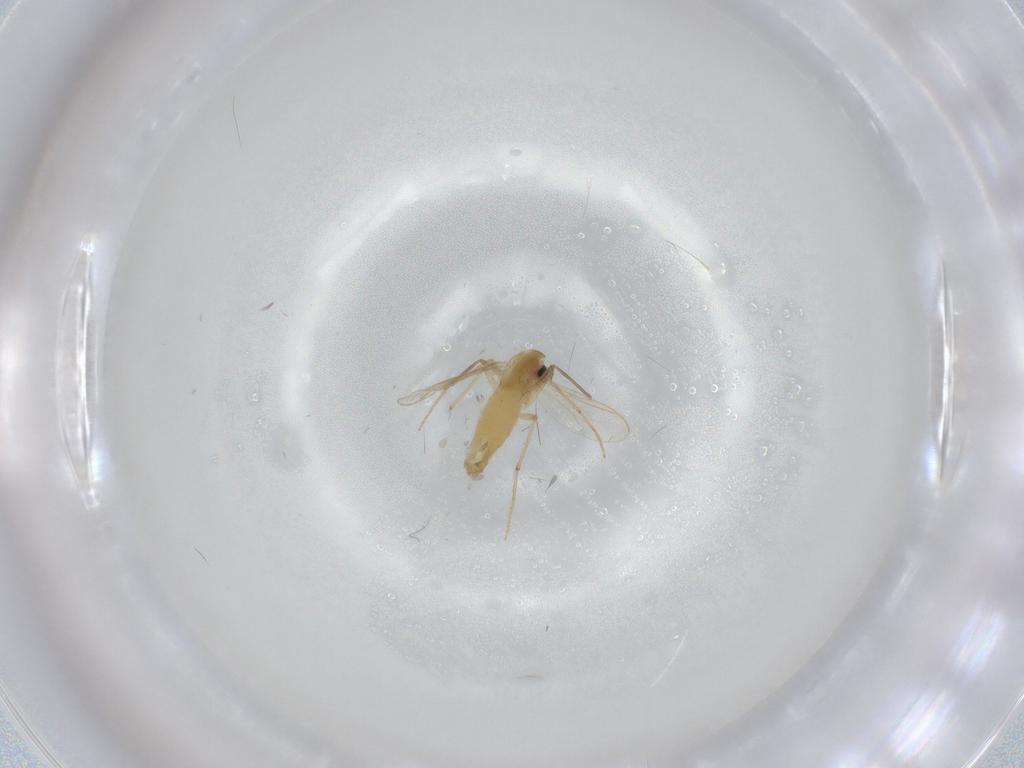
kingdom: Animalia
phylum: Arthropoda
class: Insecta
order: Diptera
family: Chironomidae
